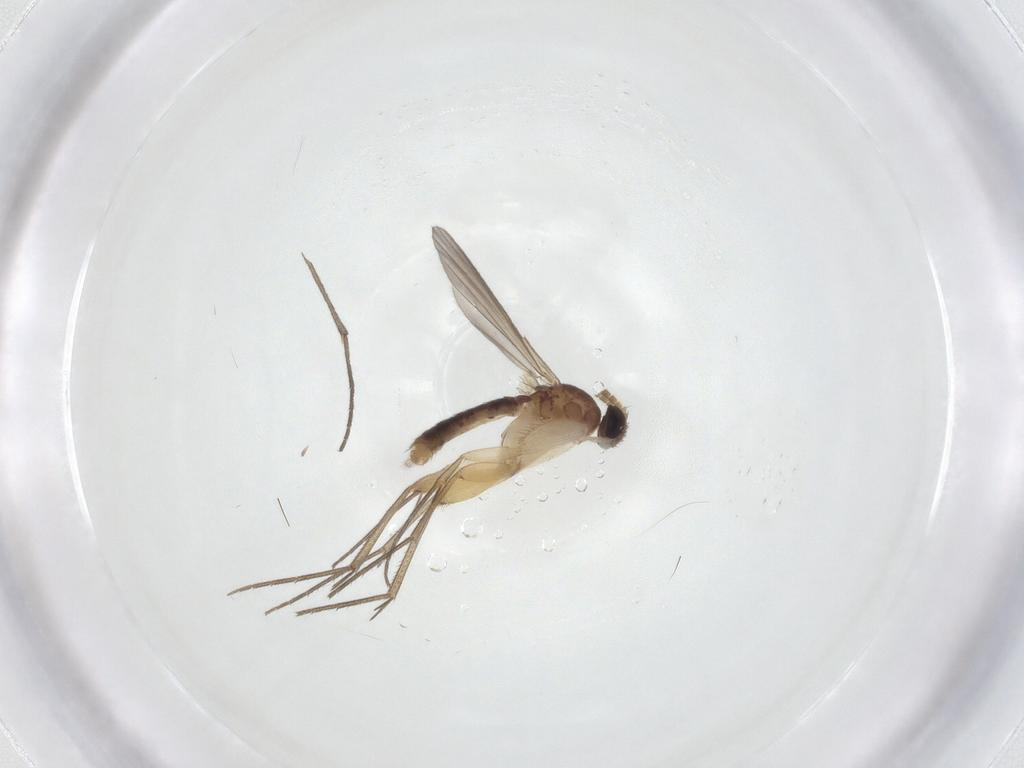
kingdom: Animalia
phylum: Arthropoda
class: Insecta
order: Diptera
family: Mycetophilidae
